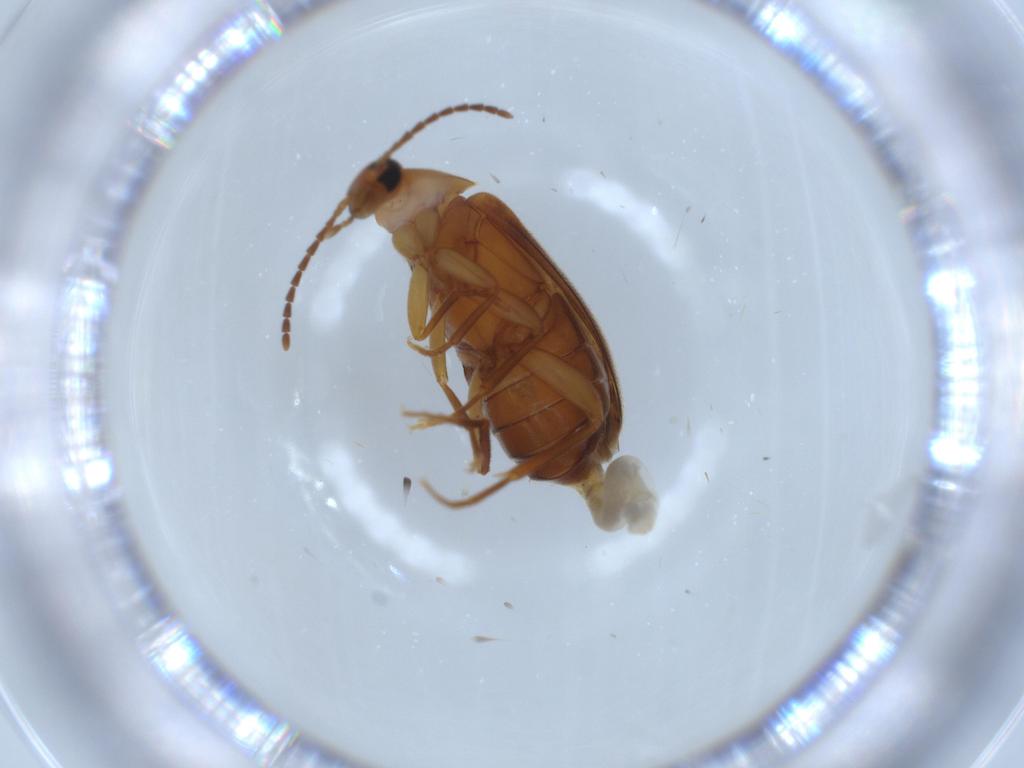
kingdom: Animalia
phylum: Arthropoda
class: Insecta
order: Coleoptera
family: Scraptiidae
